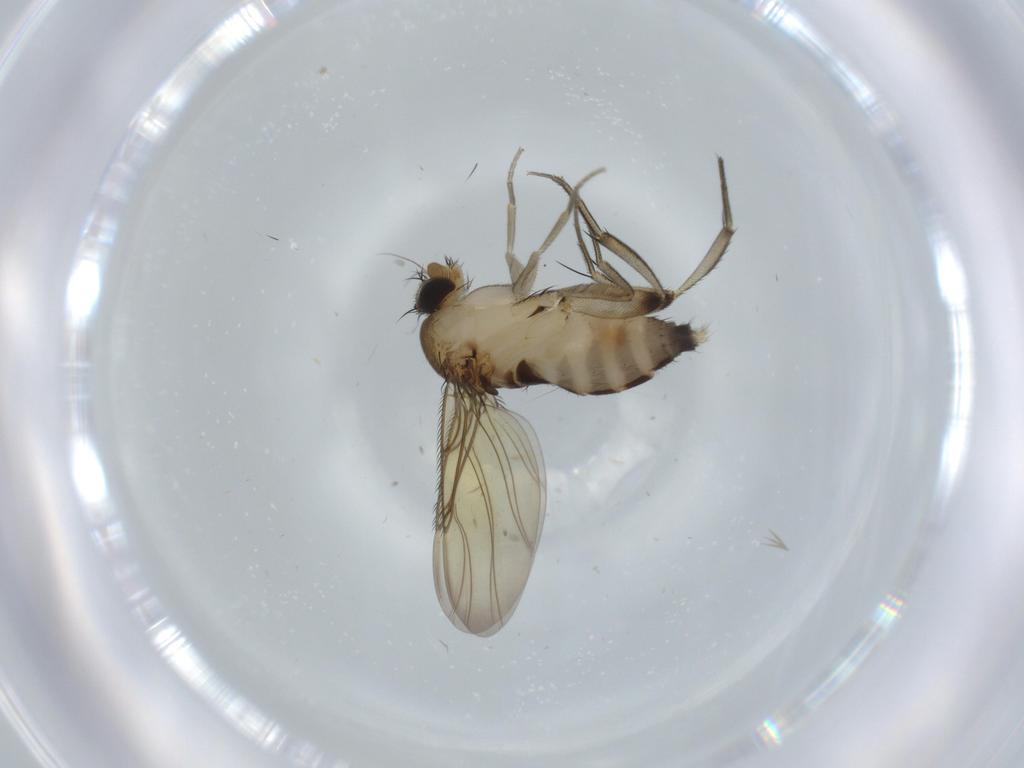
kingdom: Animalia
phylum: Arthropoda
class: Insecta
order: Diptera
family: Phoridae
